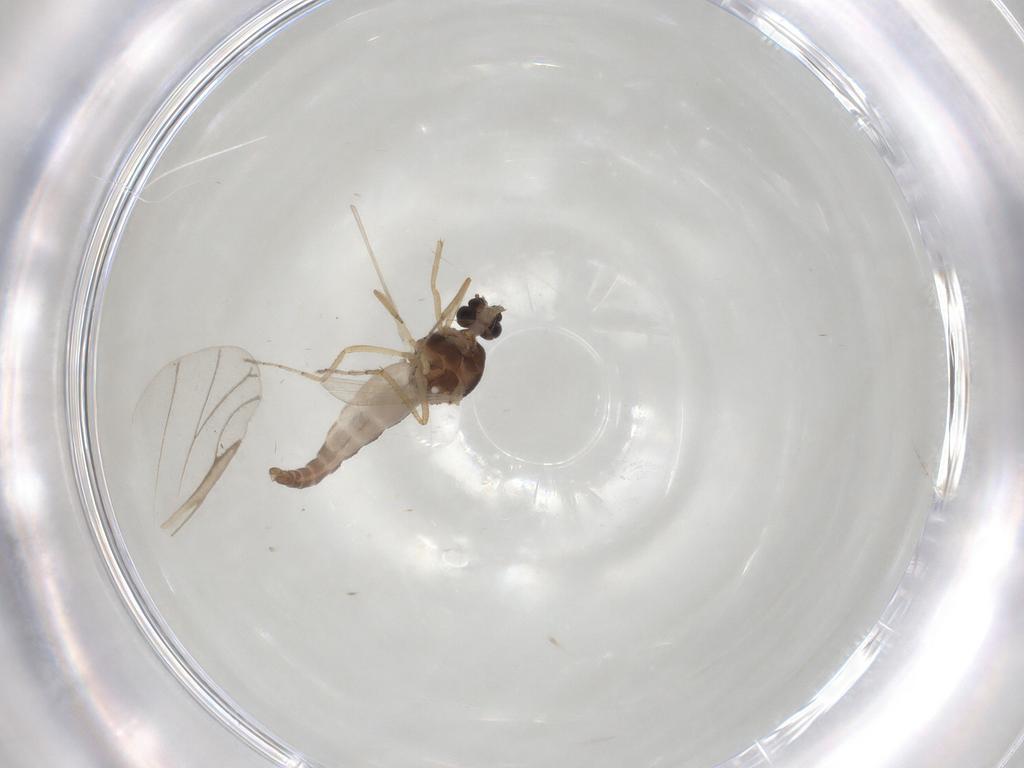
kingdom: Animalia
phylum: Arthropoda
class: Insecta
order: Diptera
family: Ceratopogonidae
